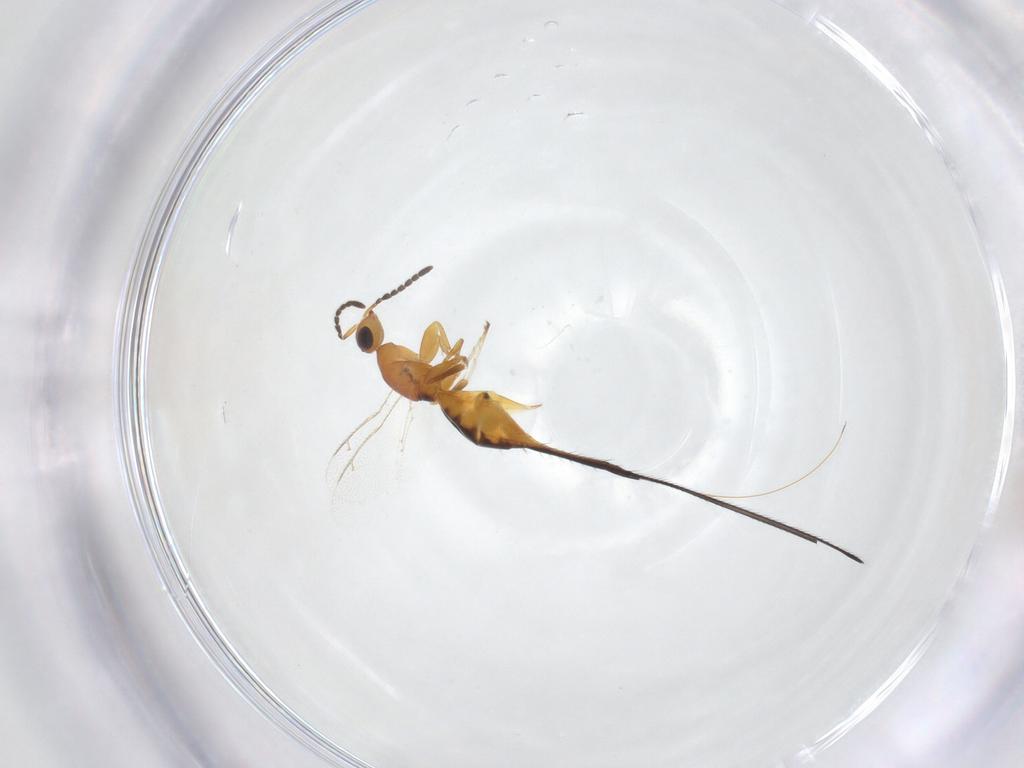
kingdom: Animalia
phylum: Arthropoda
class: Insecta
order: Hymenoptera
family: Pteromalidae
